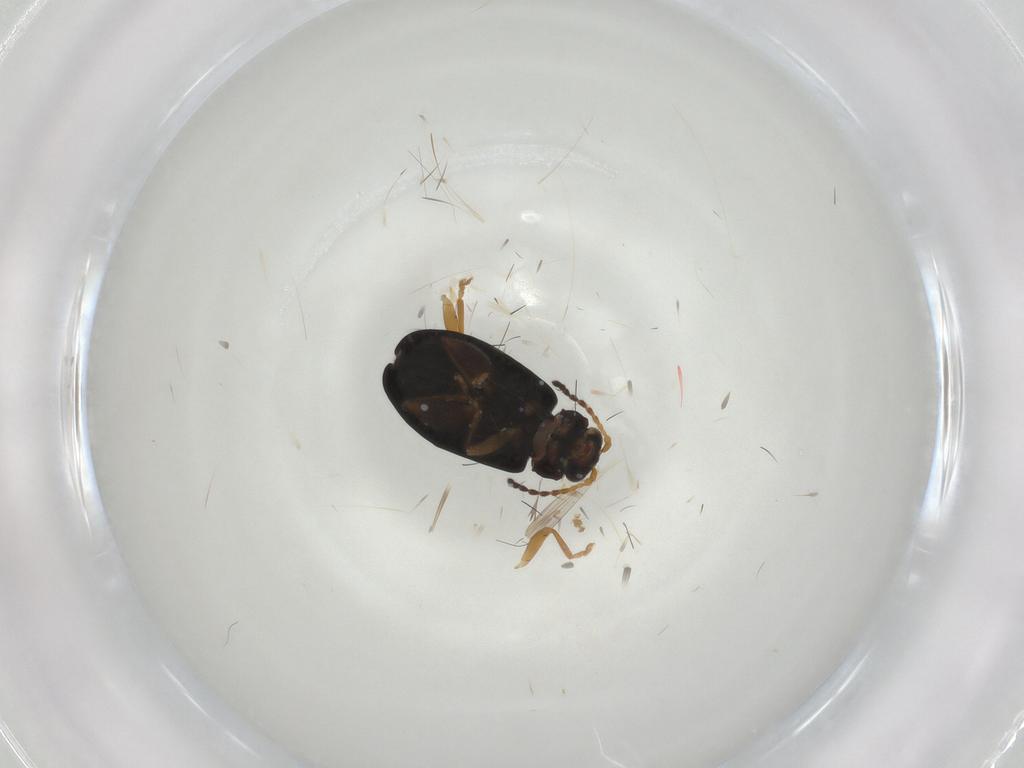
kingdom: Animalia
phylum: Arthropoda
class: Insecta
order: Coleoptera
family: Chrysomelidae
